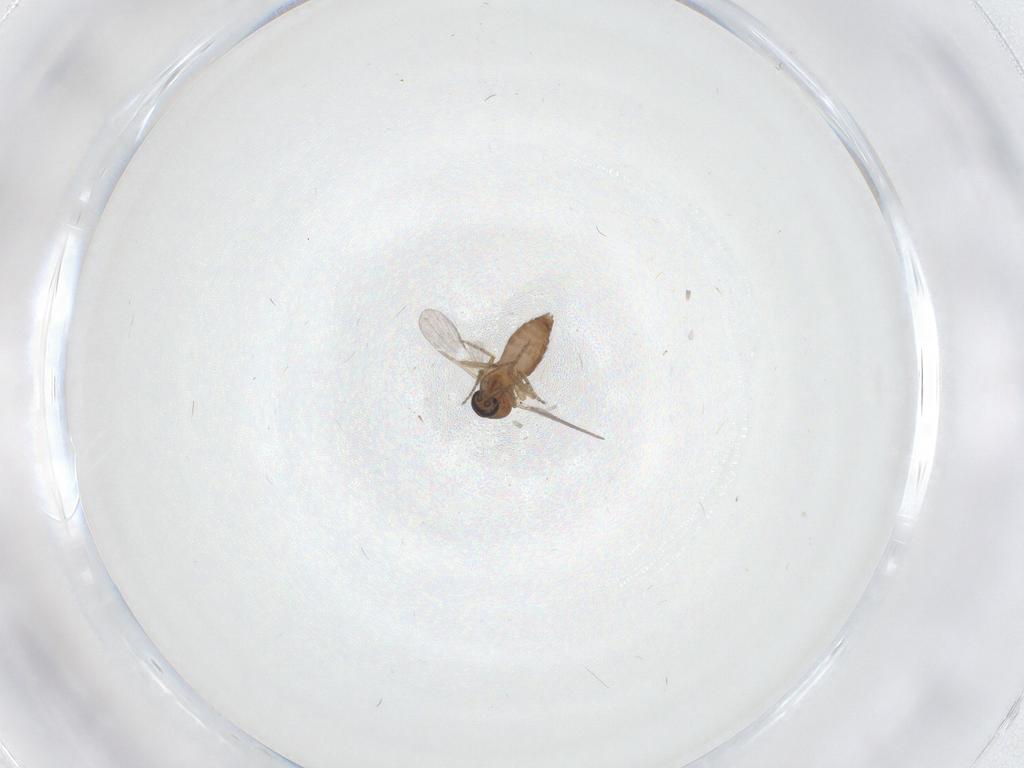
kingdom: Animalia
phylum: Arthropoda
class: Insecta
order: Diptera
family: Ceratopogonidae
